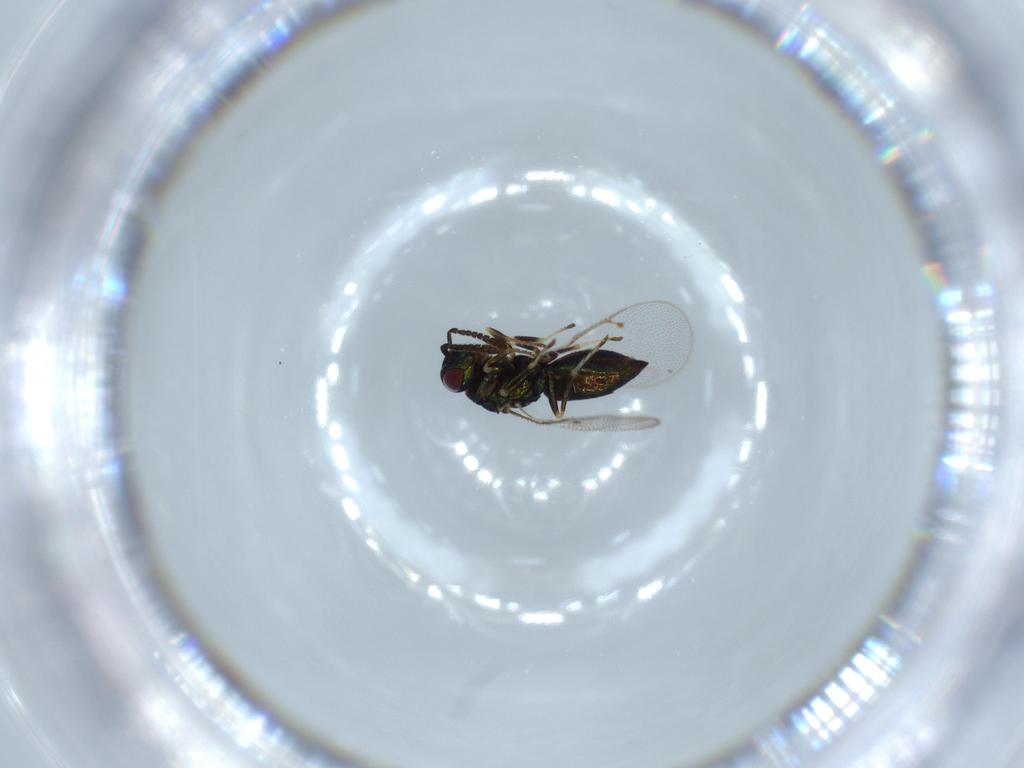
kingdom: Animalia
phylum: Arthropoda
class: Insecta
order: Hymenoptera
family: Pteromalidae
